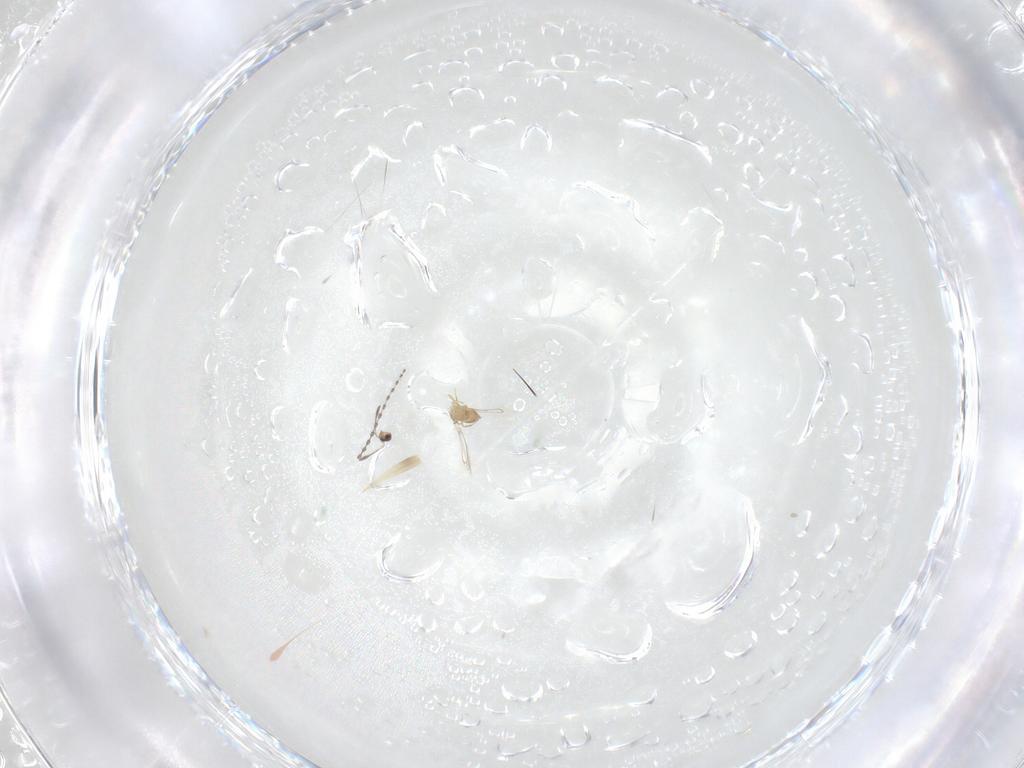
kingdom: Animalia
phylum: Arthropoda
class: Insecta
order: Diptera
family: Cecidomyiidae
